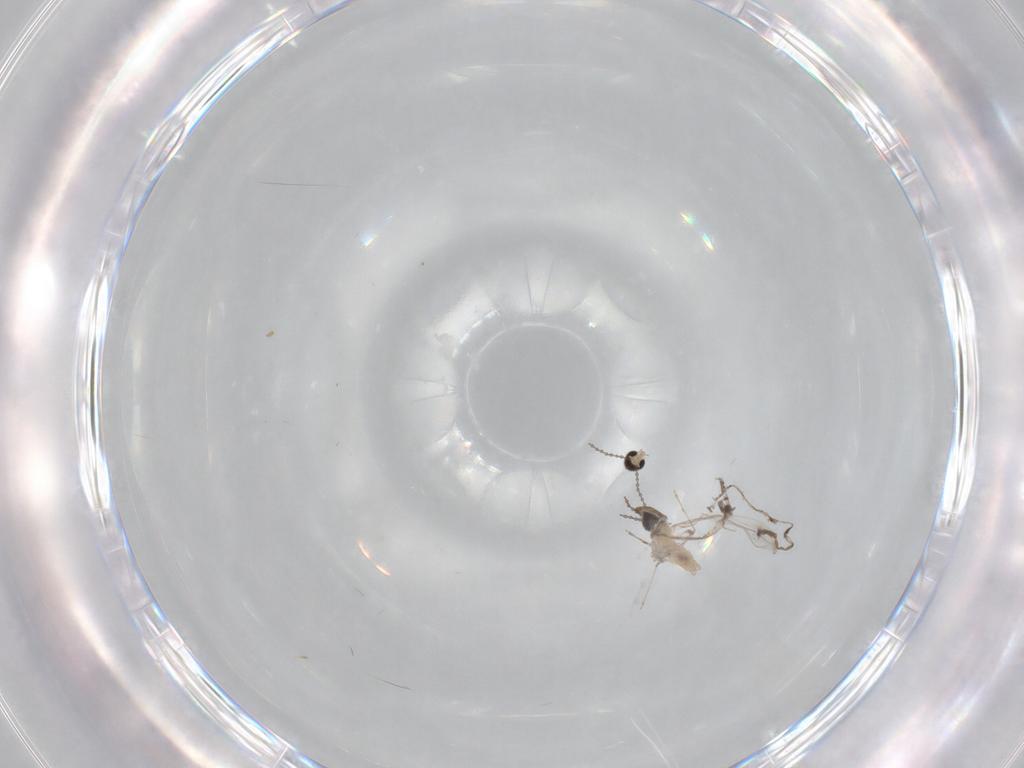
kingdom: Animalia
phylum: Arthropoda
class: Insecta
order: Diptera
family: Cecidomyiidae
